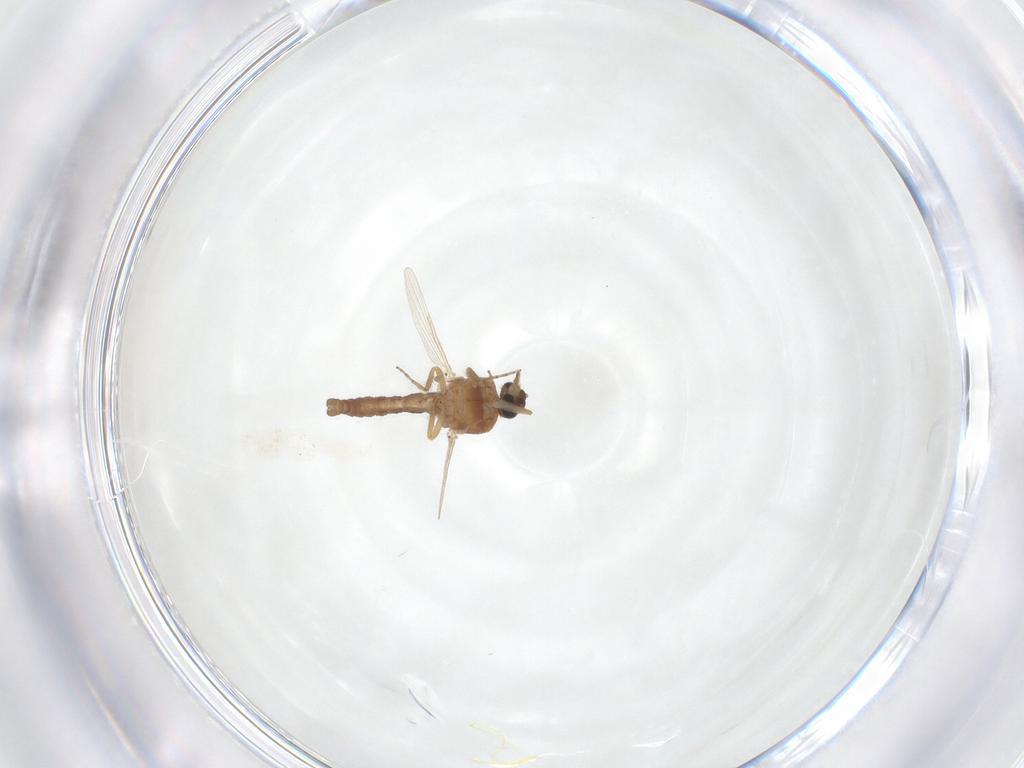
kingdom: Animalia
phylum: Arthropoda
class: Insecta
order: Diptera
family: Ceratopogonidae
